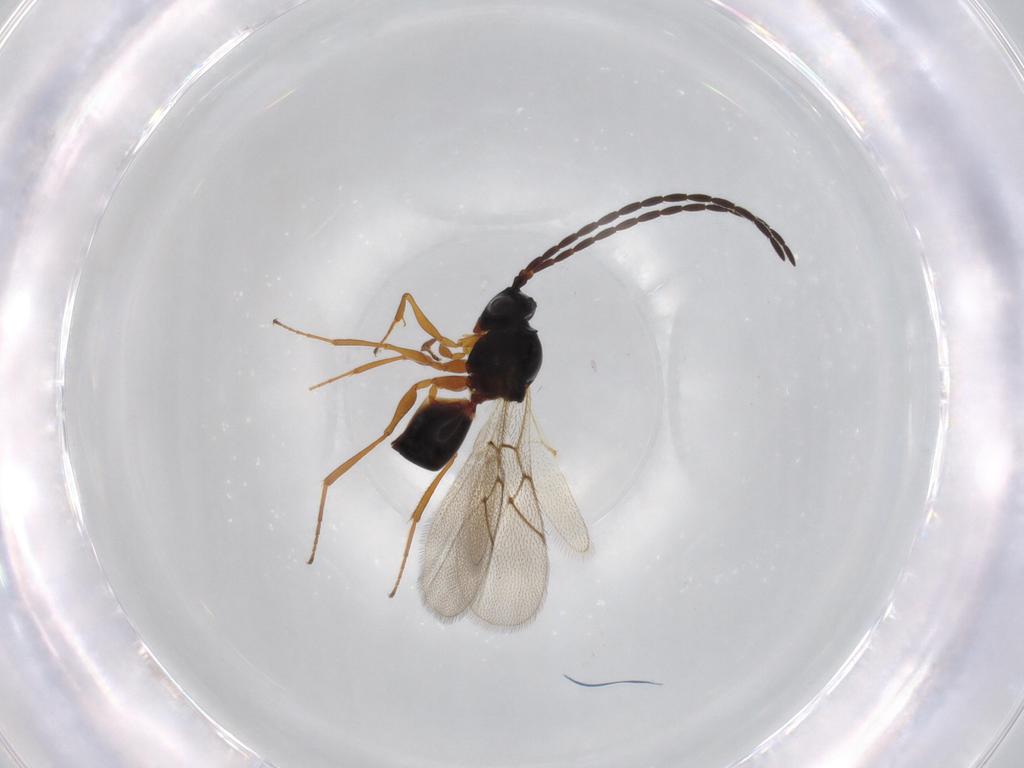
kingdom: Animalia
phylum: Arthropoda
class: Insecta
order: Hymenoptera
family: Figitidae
